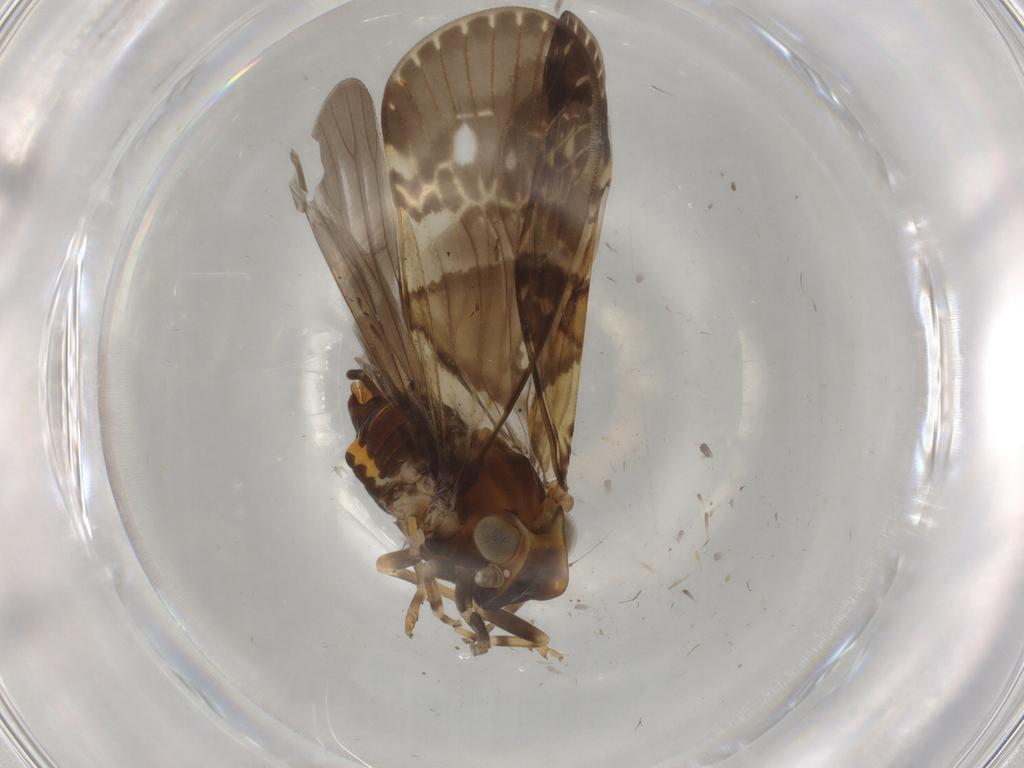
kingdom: Animalia
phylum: Arthropoda
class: Insecta
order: Hemiptera
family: Cixiidae
